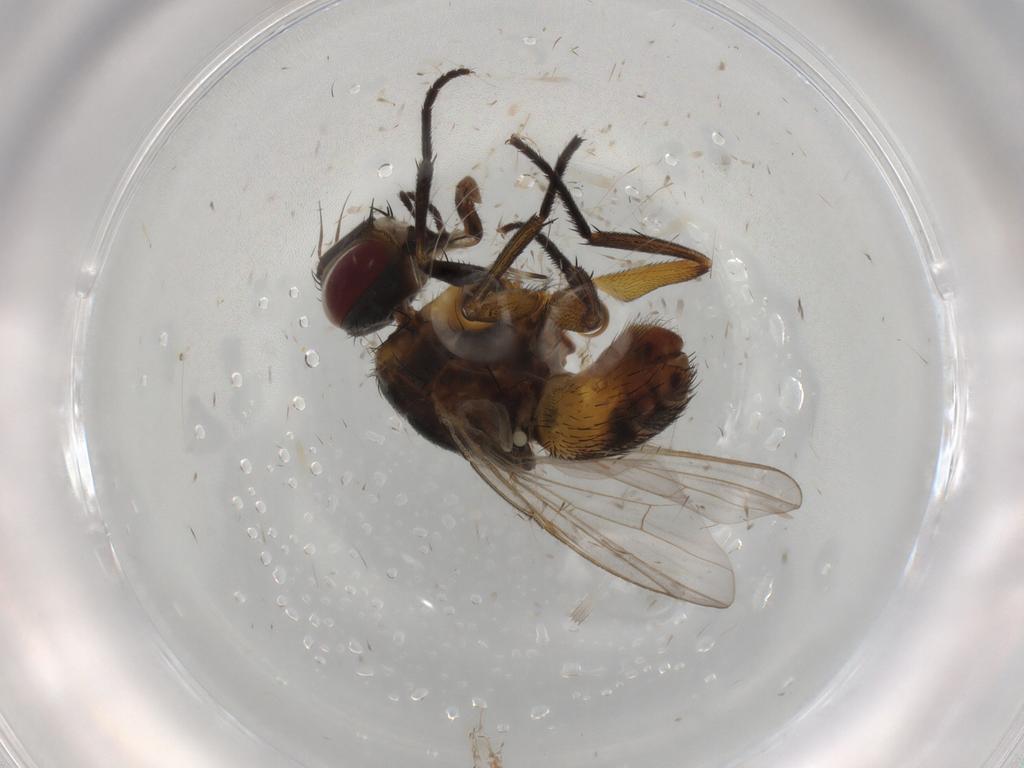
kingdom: Animalia
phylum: Arthropoda
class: Insecta
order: Diptera
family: Muscidae
